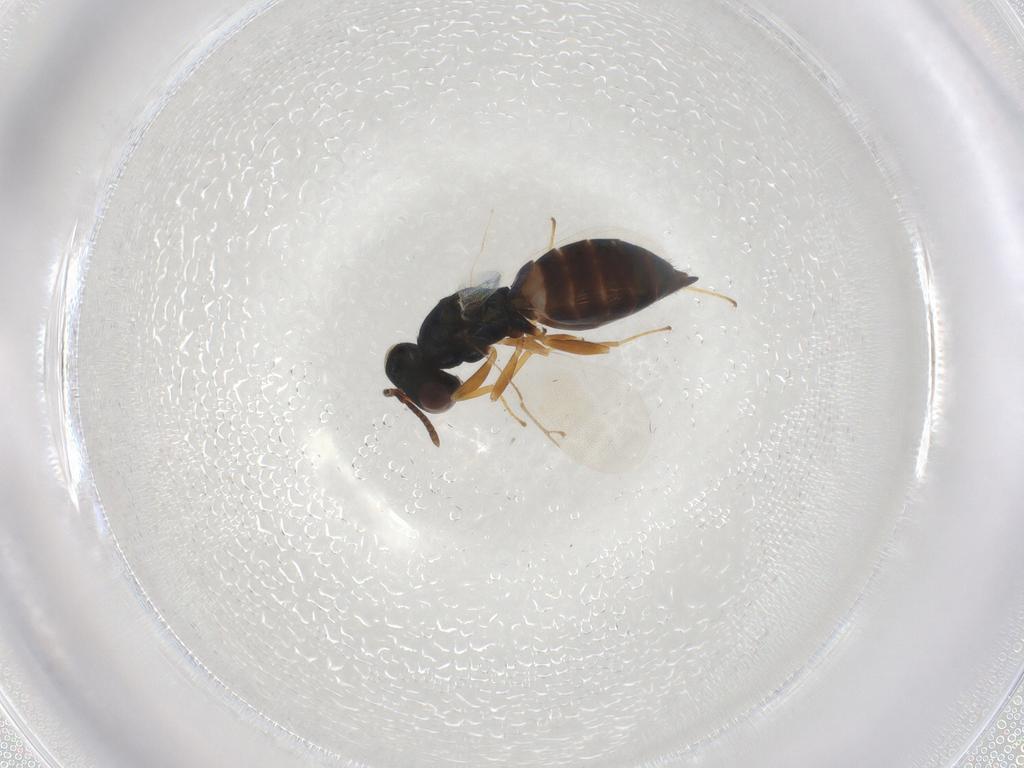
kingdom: Animalia
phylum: Arthropoda
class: Insecta
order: Hymenoptera
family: Pteromalidae
